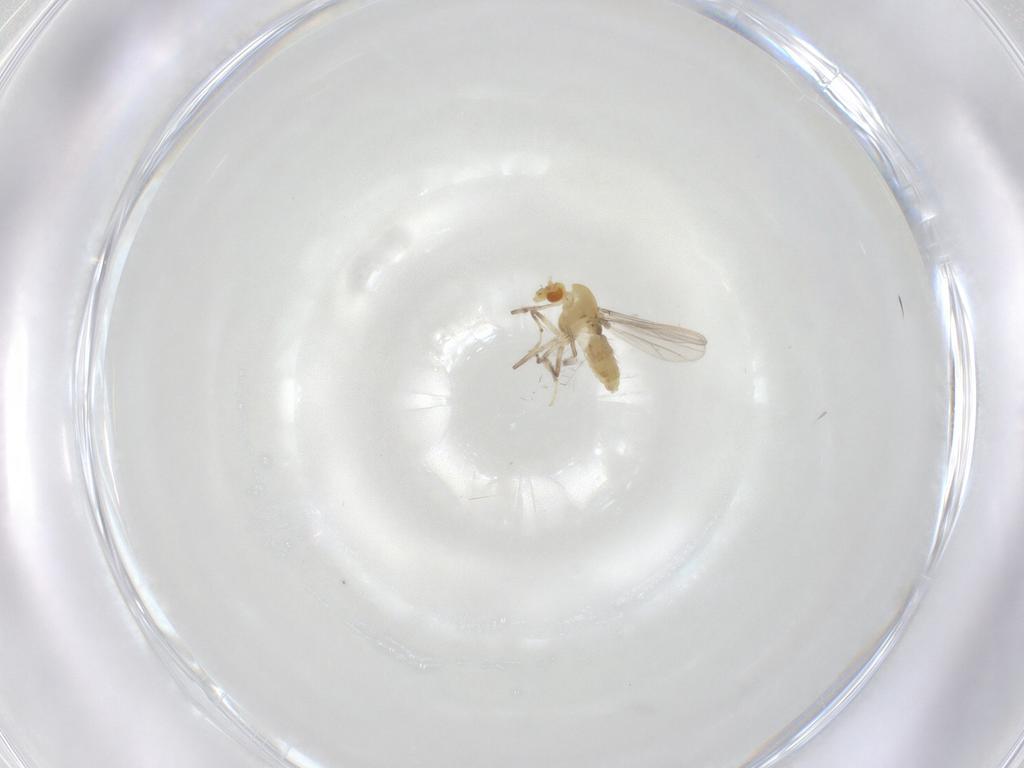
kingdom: Animalia
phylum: Arthropoda
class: Insecta
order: Diptera
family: Chironomidae
